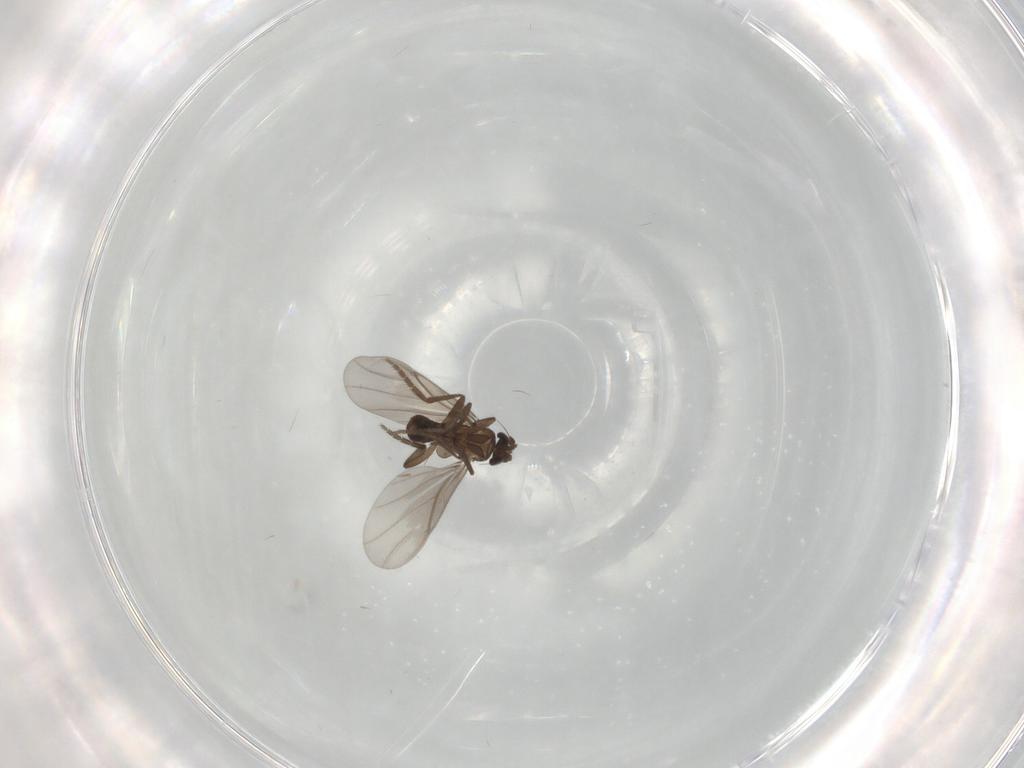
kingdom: Animalia
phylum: Arthropoda
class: Insecta
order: Diptera
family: Phoridae
